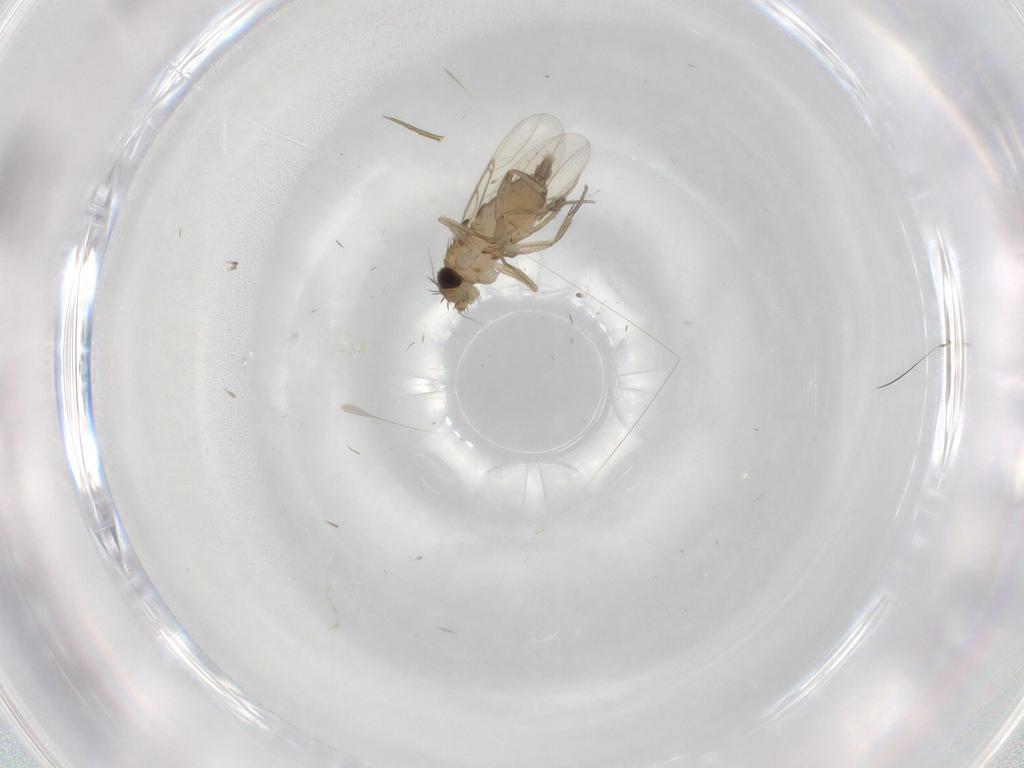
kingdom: Animalia
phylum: Arthropoda
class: Insecta
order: Diptera
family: Phoridae
